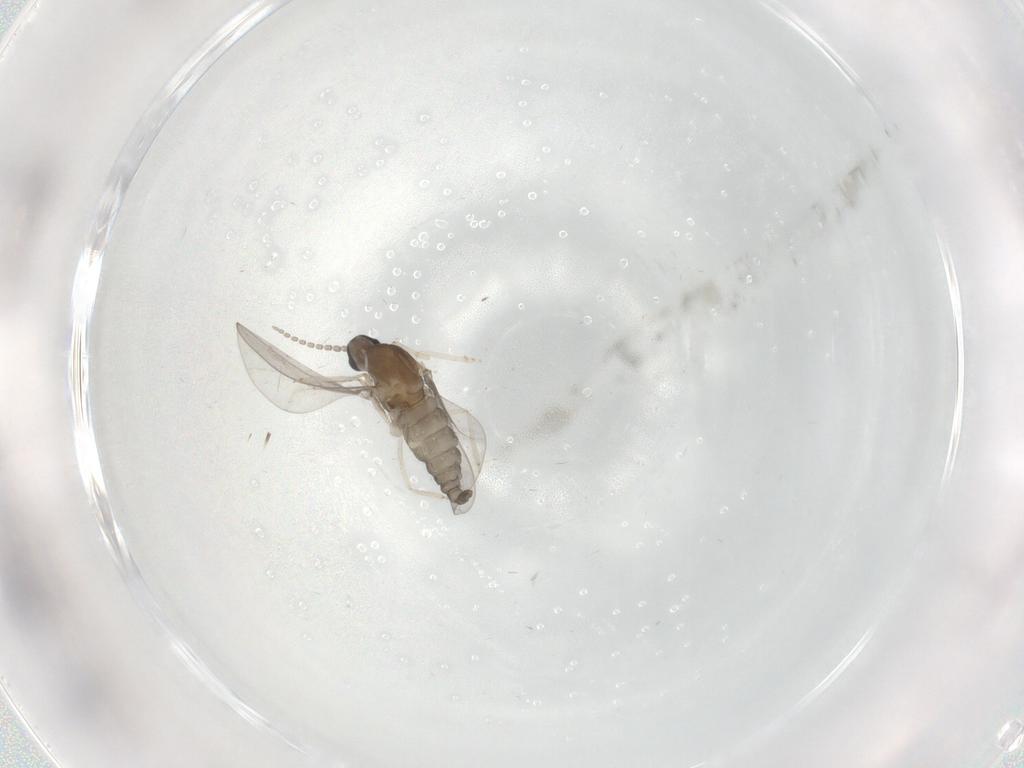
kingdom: Animalia
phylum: Arthropoda
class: Insecta
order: Diptera
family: Cecidomyiidae
